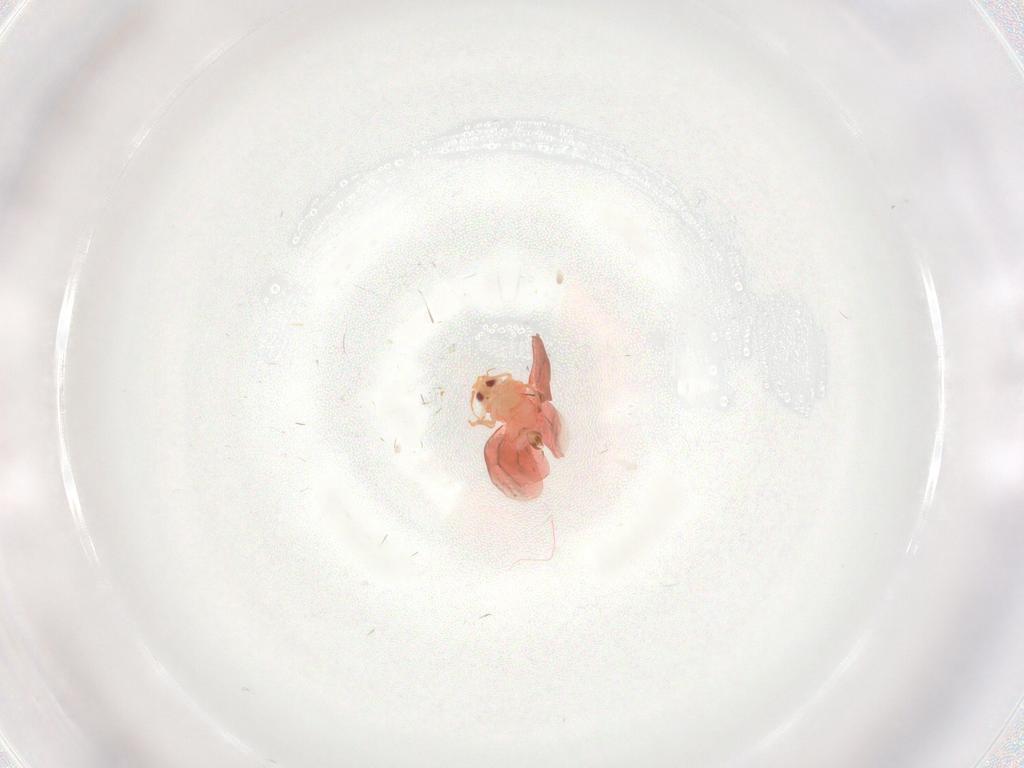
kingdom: Animalia
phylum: Arthropoda
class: Insecta
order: Hemiptera
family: Aleyrodidae
